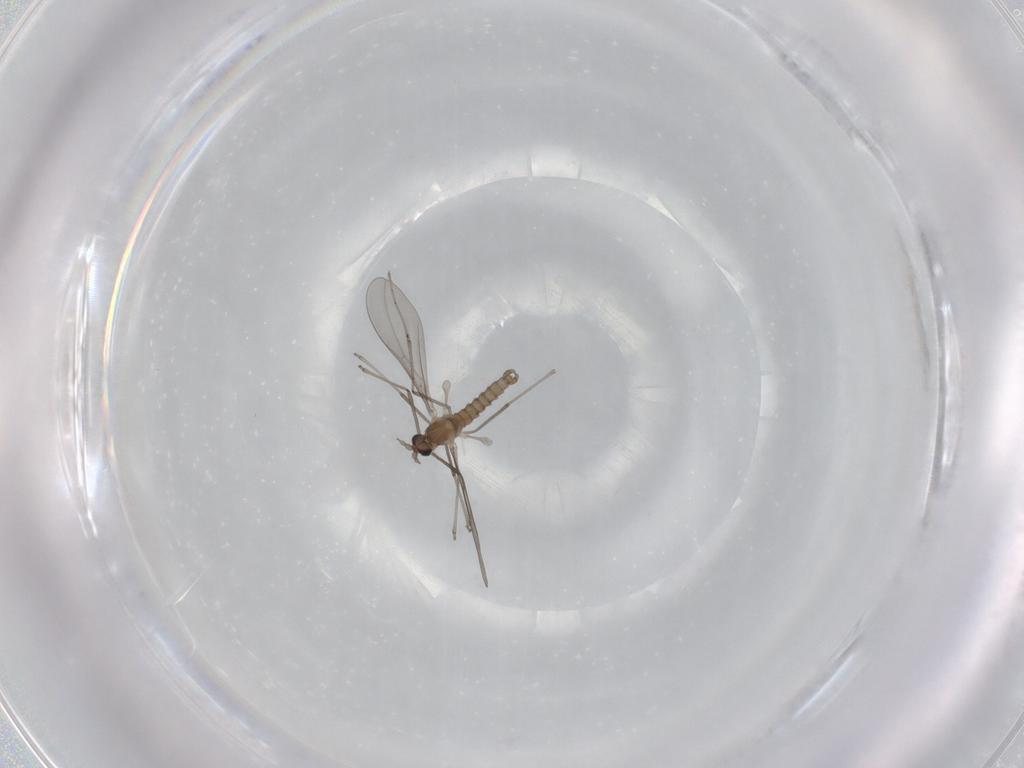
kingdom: Animalia
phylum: Arthropoda
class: Insecta
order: Diptera
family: Cecidomyiidae
